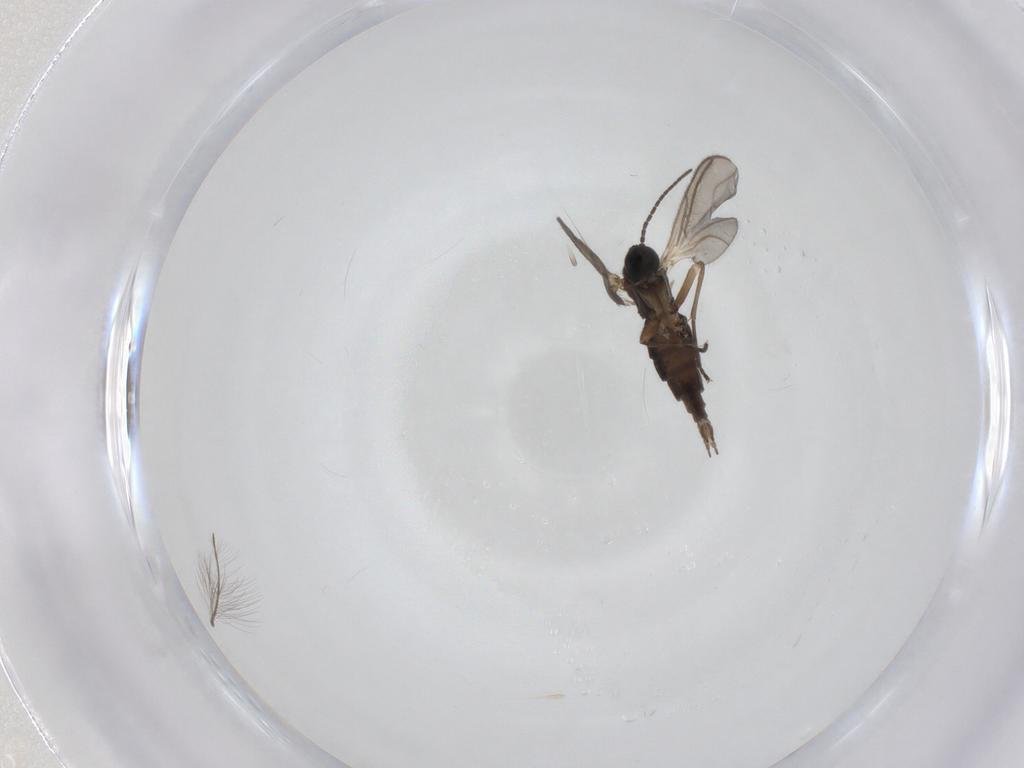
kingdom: Animalia
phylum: Arthropoda
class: Insecta
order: Diptera
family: Sciaridae
